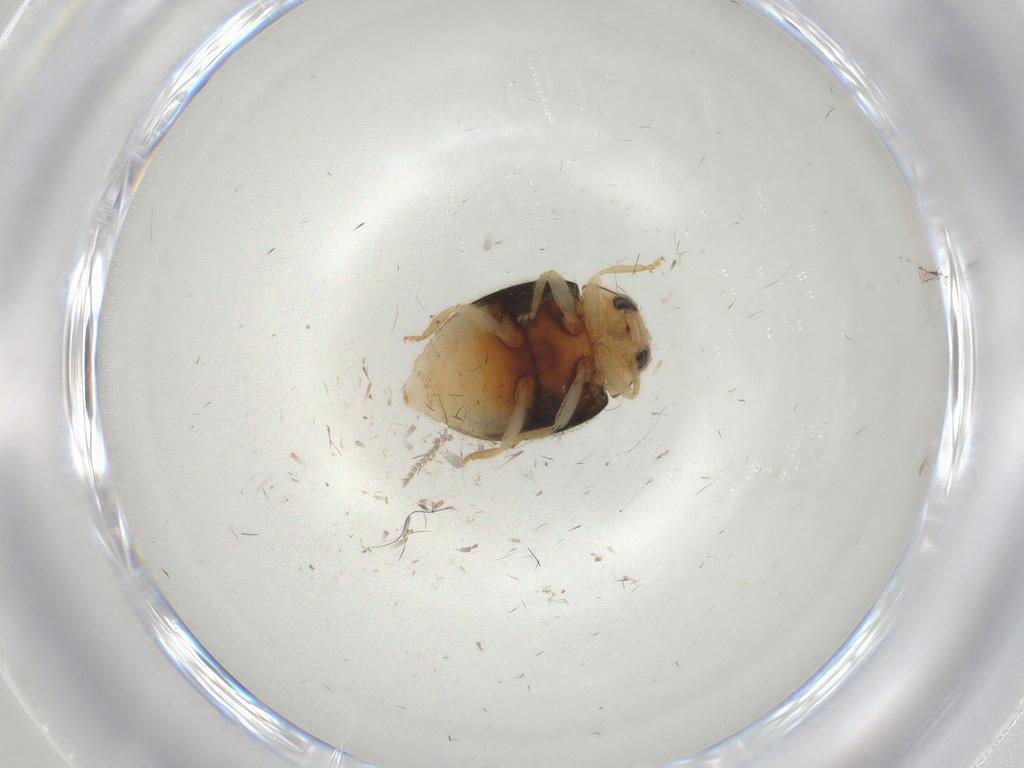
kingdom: Animalia
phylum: Arthropoda
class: Insecta
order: Coleoptera
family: Coccinellidae
